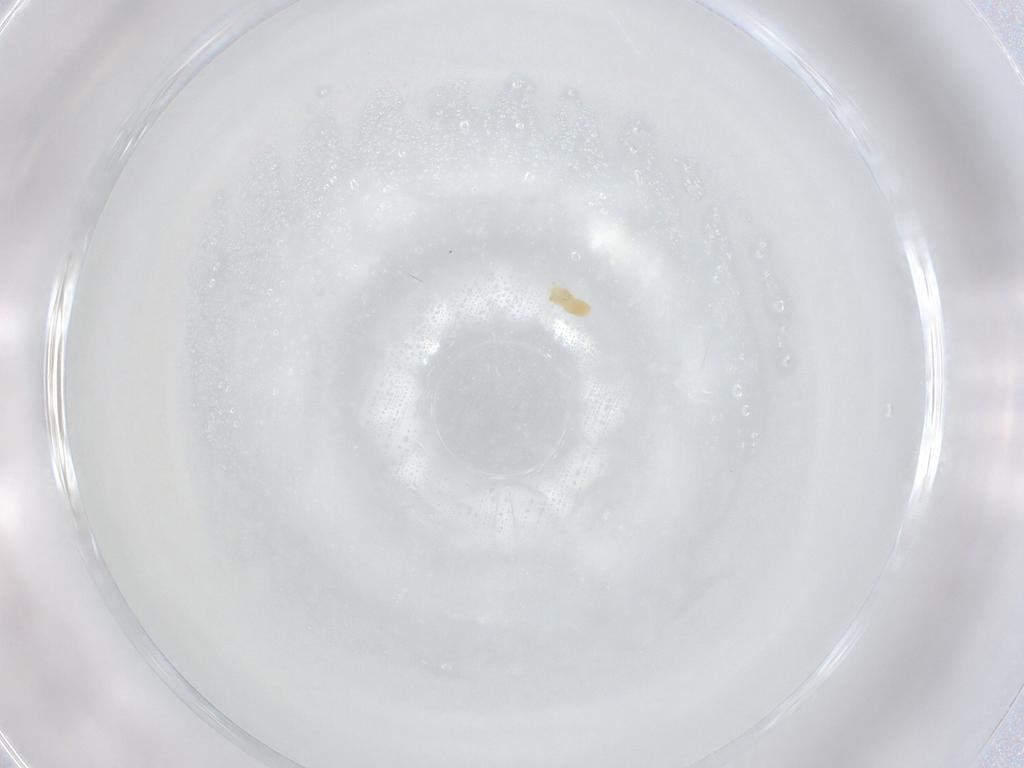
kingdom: Animalia
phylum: Arthropoda
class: Arachnida
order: Trombidiformes
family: Eupodidae
